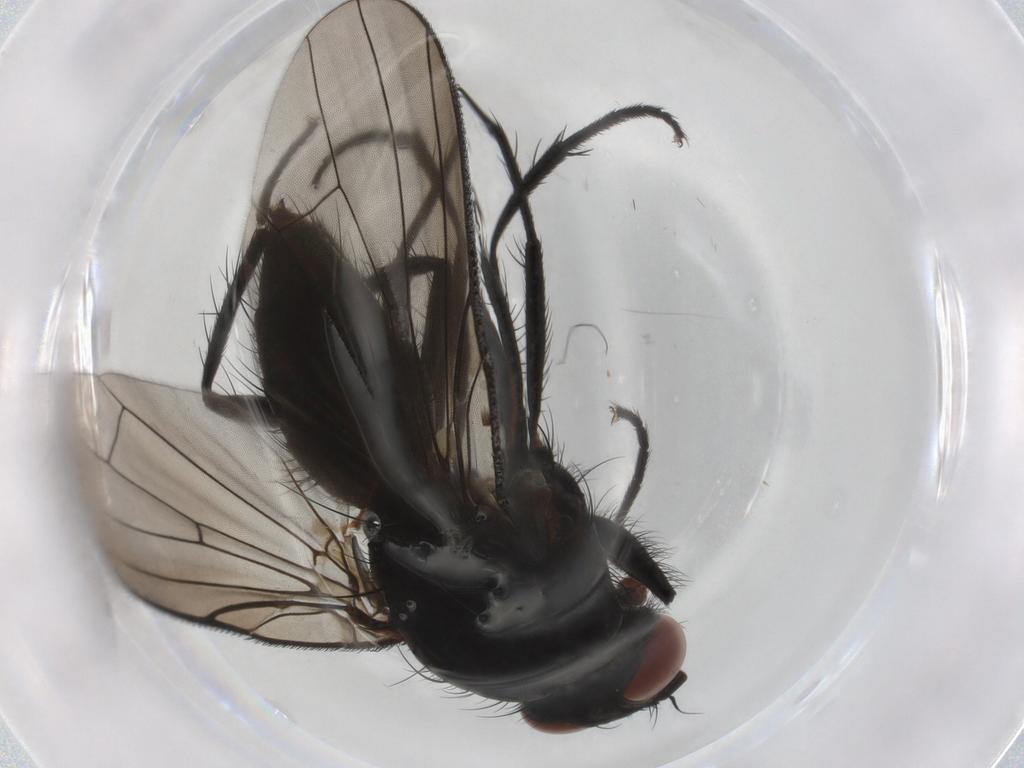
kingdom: Animalia
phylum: Arthropoda
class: Insecta
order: Diptera
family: Anthomyiidae
